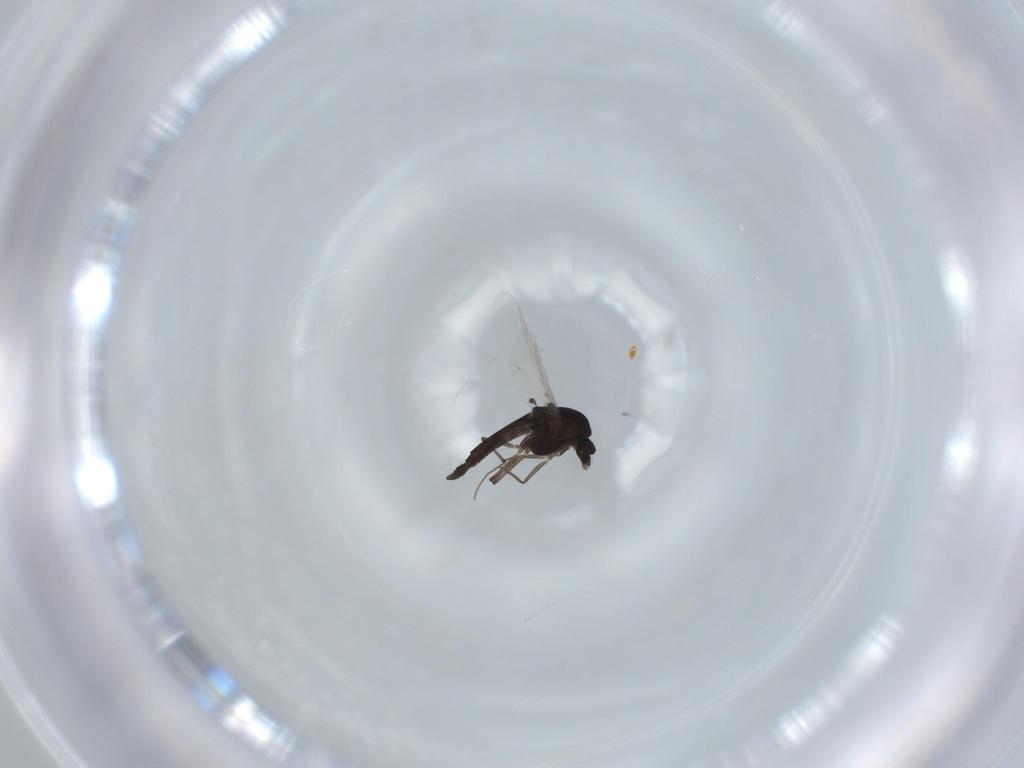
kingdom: Animalia
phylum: Arthropoda
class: Insecta
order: Diptera
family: Chironomidae
